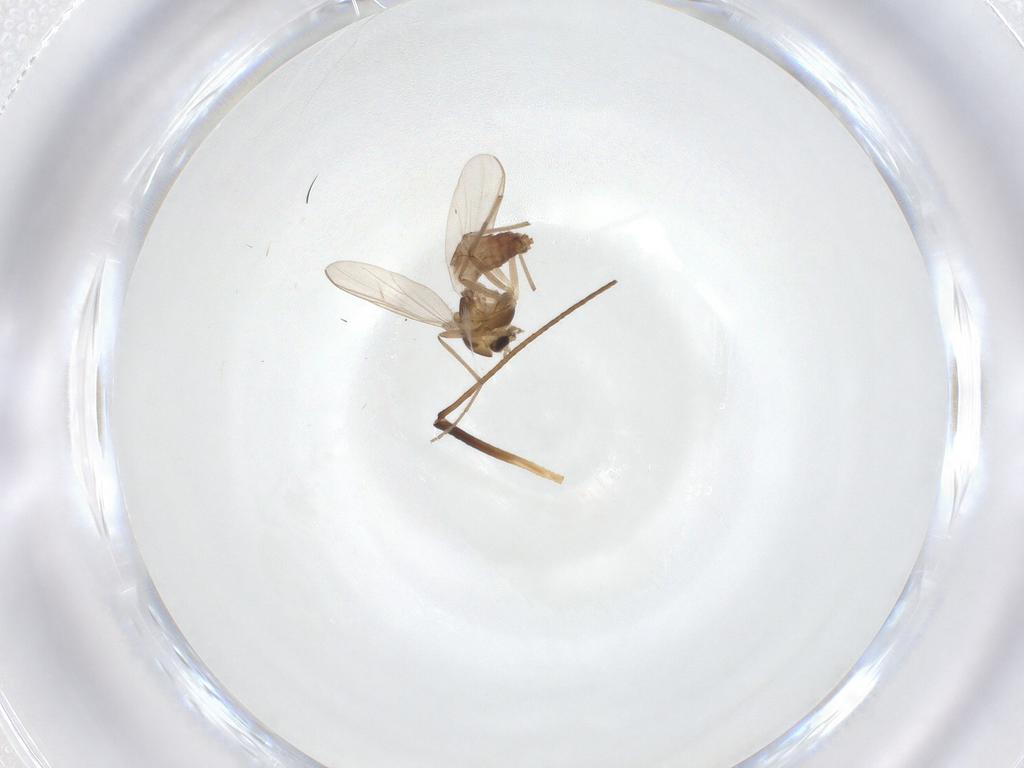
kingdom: Animalia
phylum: Arthropoda
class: Insecta
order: Diptera
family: Chironomidae
